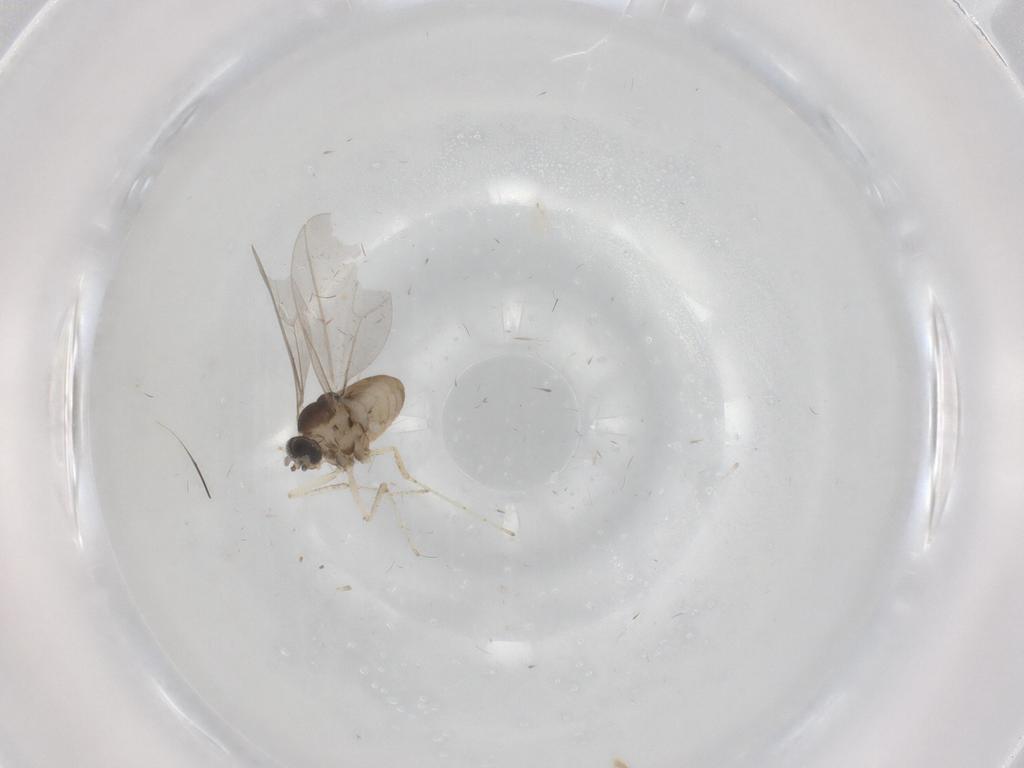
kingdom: Animalia
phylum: Arthropoda
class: Insecta
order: Diptera
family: Cecidomyiidae
